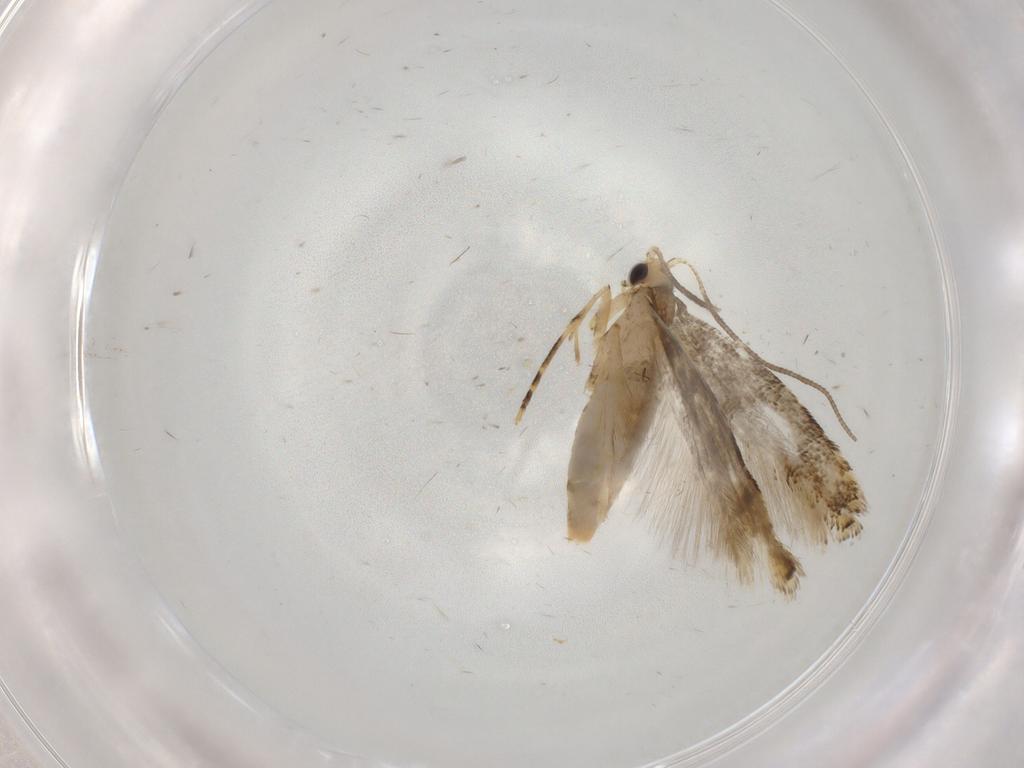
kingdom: Animalia
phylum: Arthropoda
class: Insecta
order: Lepidoptera
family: Tineidae
